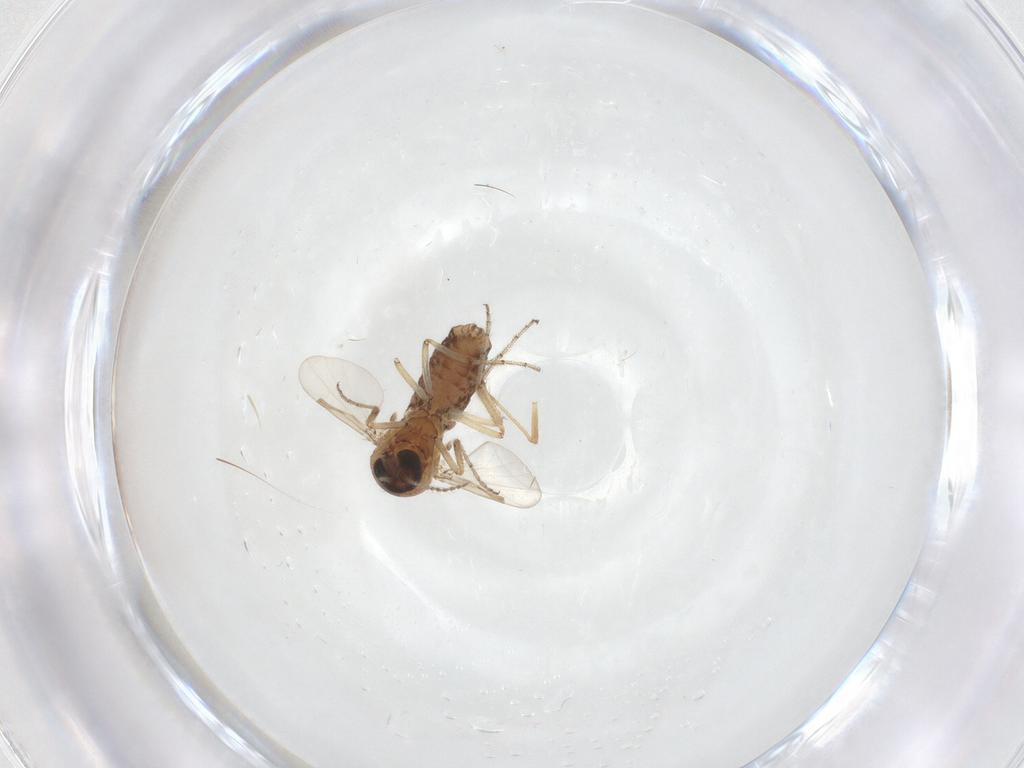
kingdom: Animalia
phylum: Arthropoda
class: Insecta
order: Diptera
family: Ceratopogonidae
